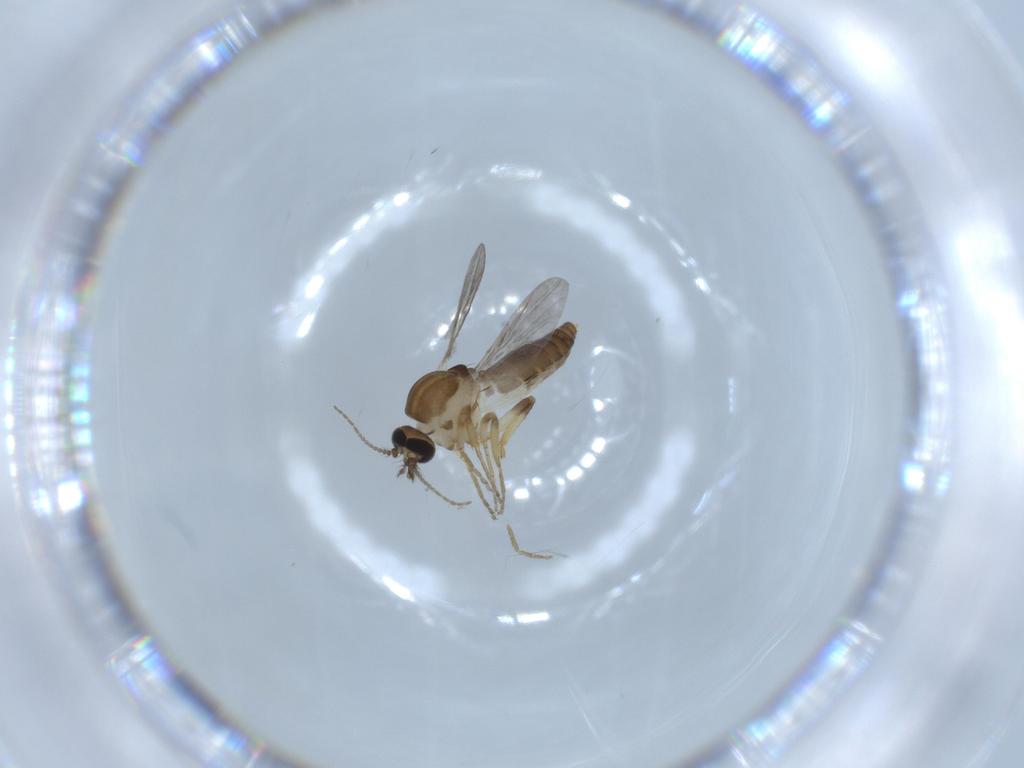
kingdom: Animalia
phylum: Arthropoda
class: Insecta
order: Diptera
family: Ceratopogonidae
